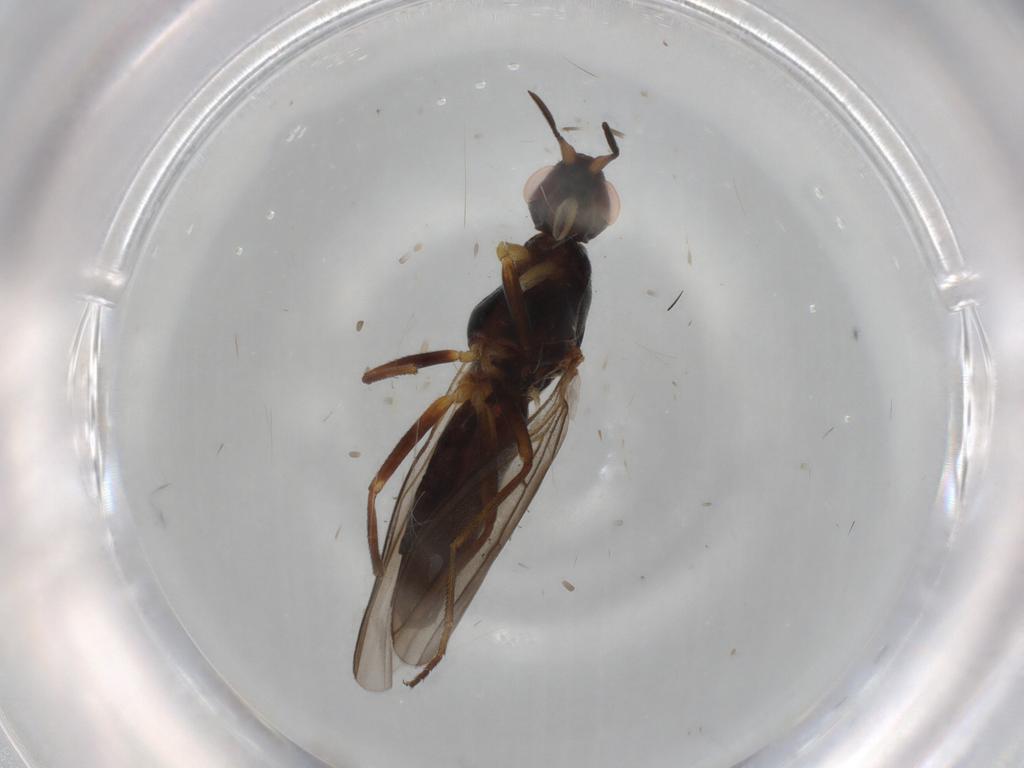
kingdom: Animalia
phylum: Arthropoda
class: Insecta
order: Diptera
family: Chloropidae
